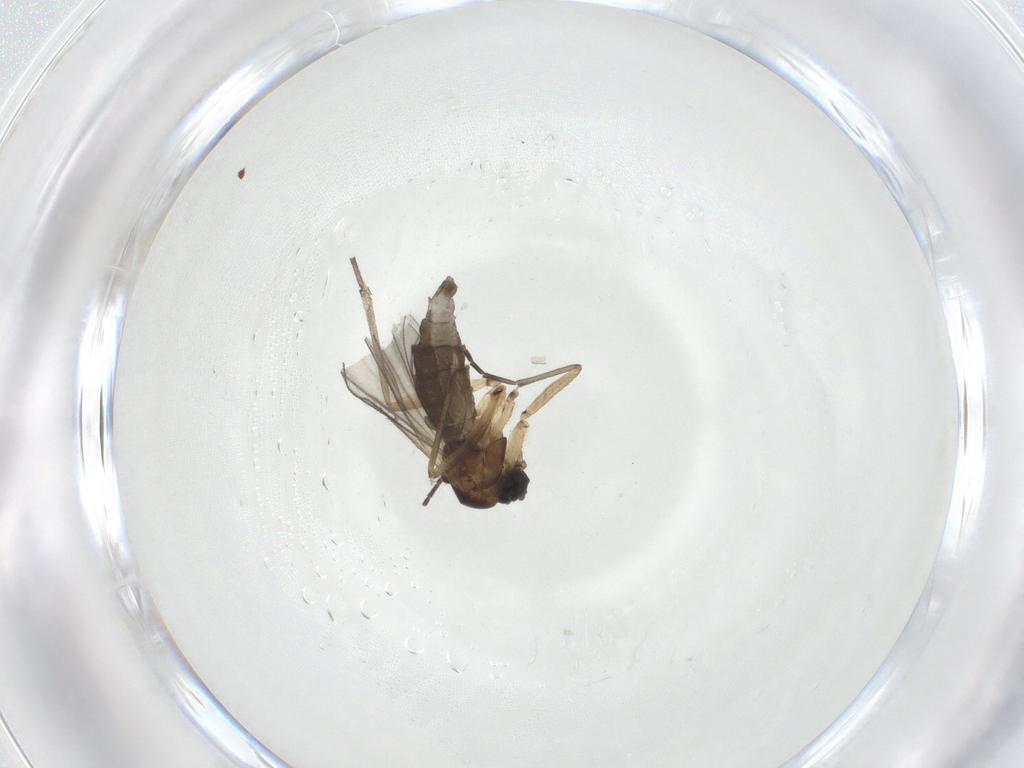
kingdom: Animalia
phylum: Arthropoda
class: Insecta
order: Diptera
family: Sciaridae
